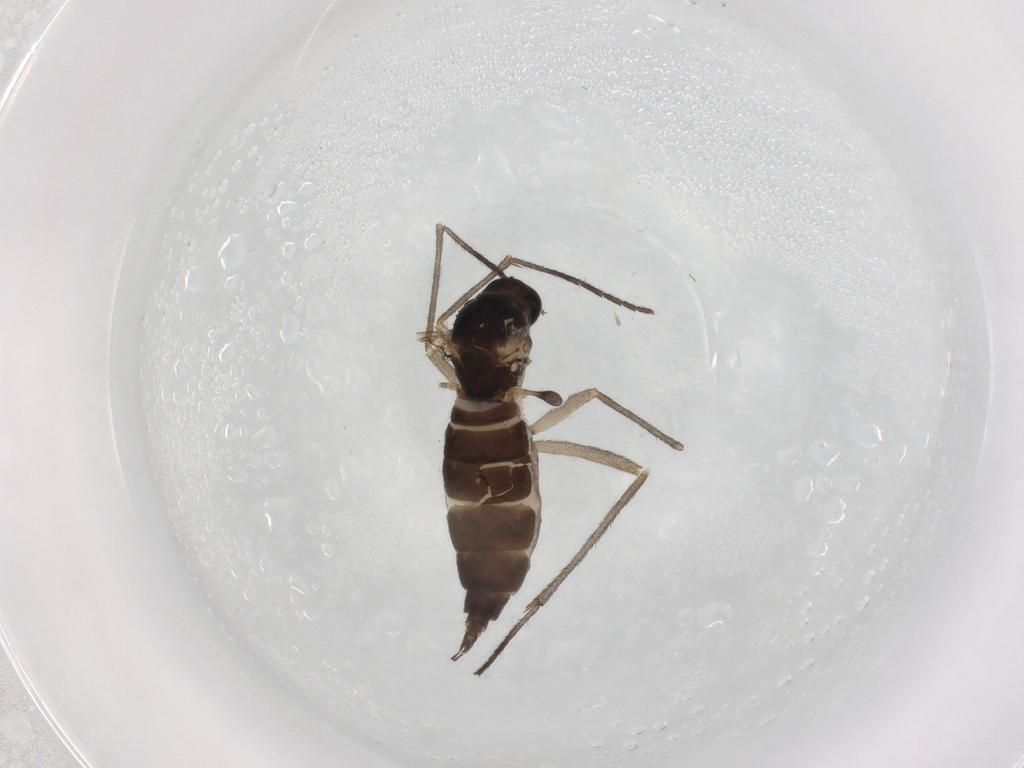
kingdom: Animalia
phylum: Arthropoda
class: Insecta
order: Diptera
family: Sciaridae
